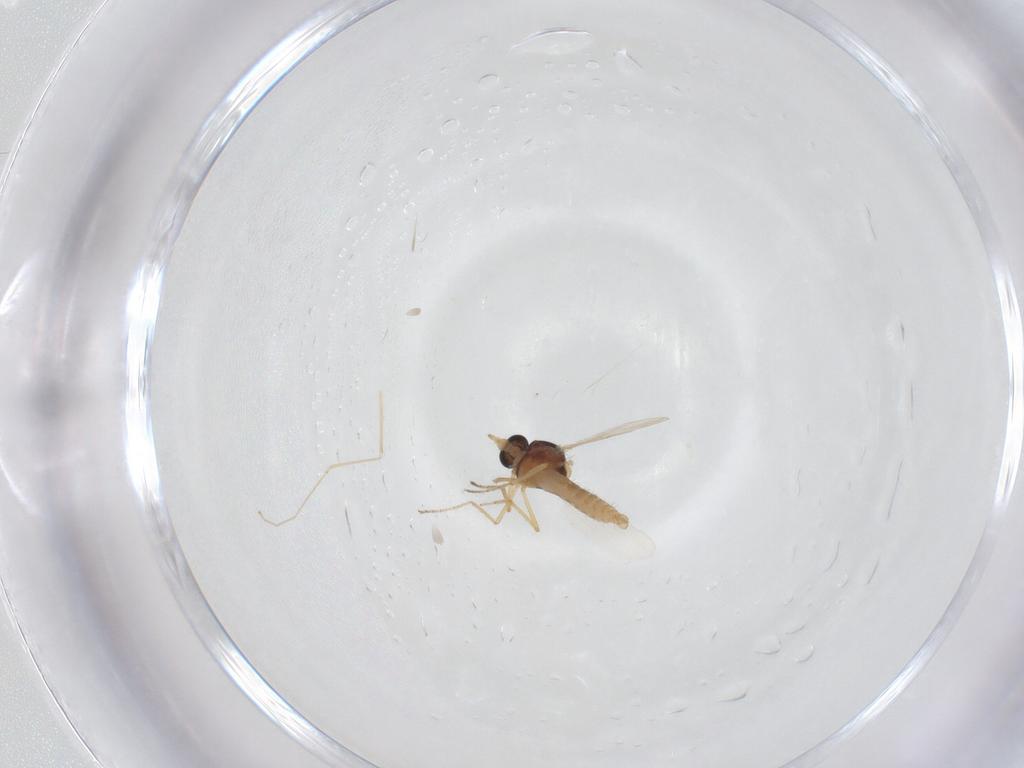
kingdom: Animalia
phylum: Arthropoda
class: Insecta
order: Diptera
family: Cecidomyiidae
